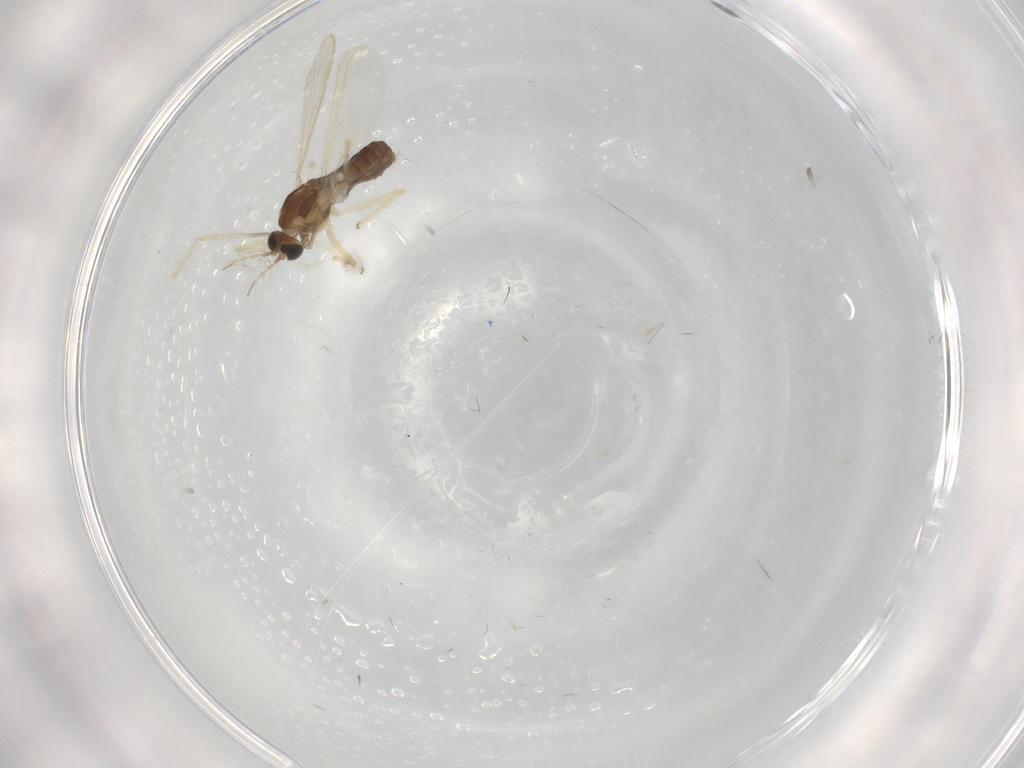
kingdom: Animalia
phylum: Arthropoda
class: Insecta
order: Diptera
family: Chironomidae
